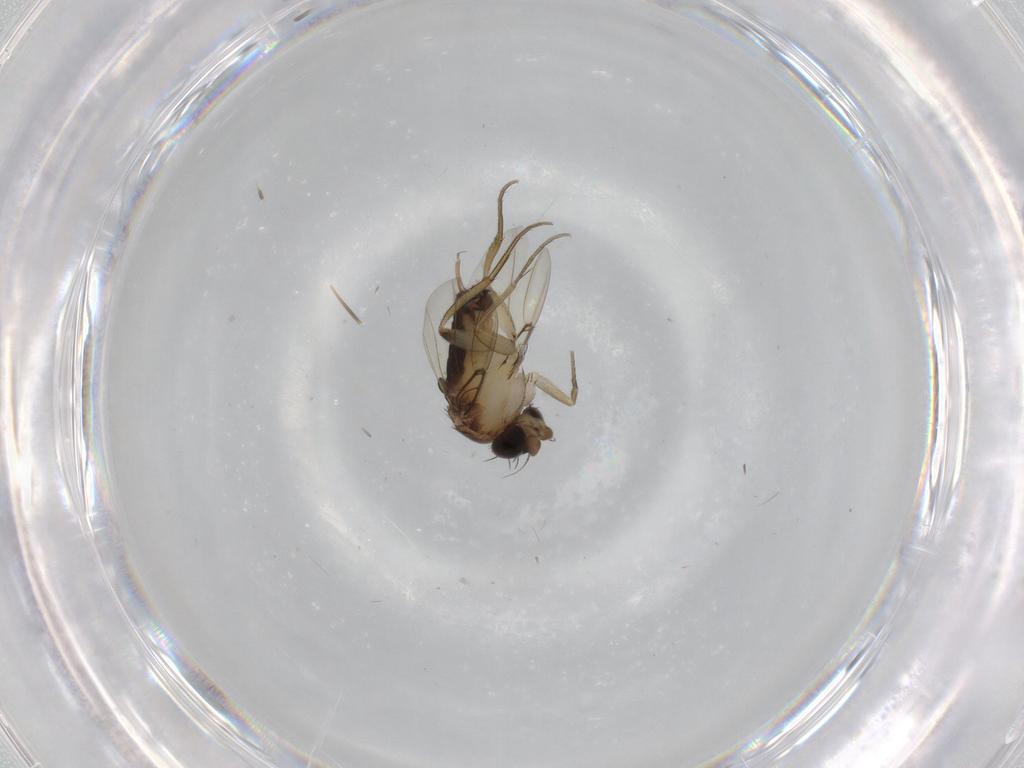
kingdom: Animalia
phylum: Arthropoda
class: Insecta
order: Diptera
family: Phoridae
